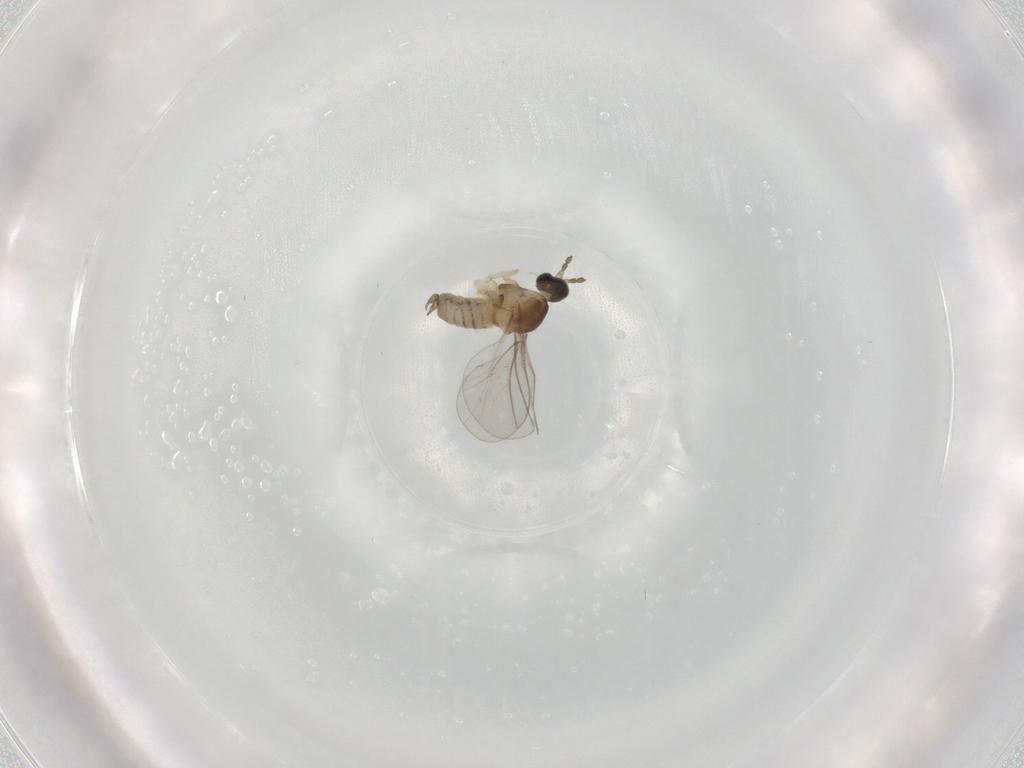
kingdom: Animalia
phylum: Arthropoda
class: Insecta
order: Diptera
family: Cecidomyiidae
